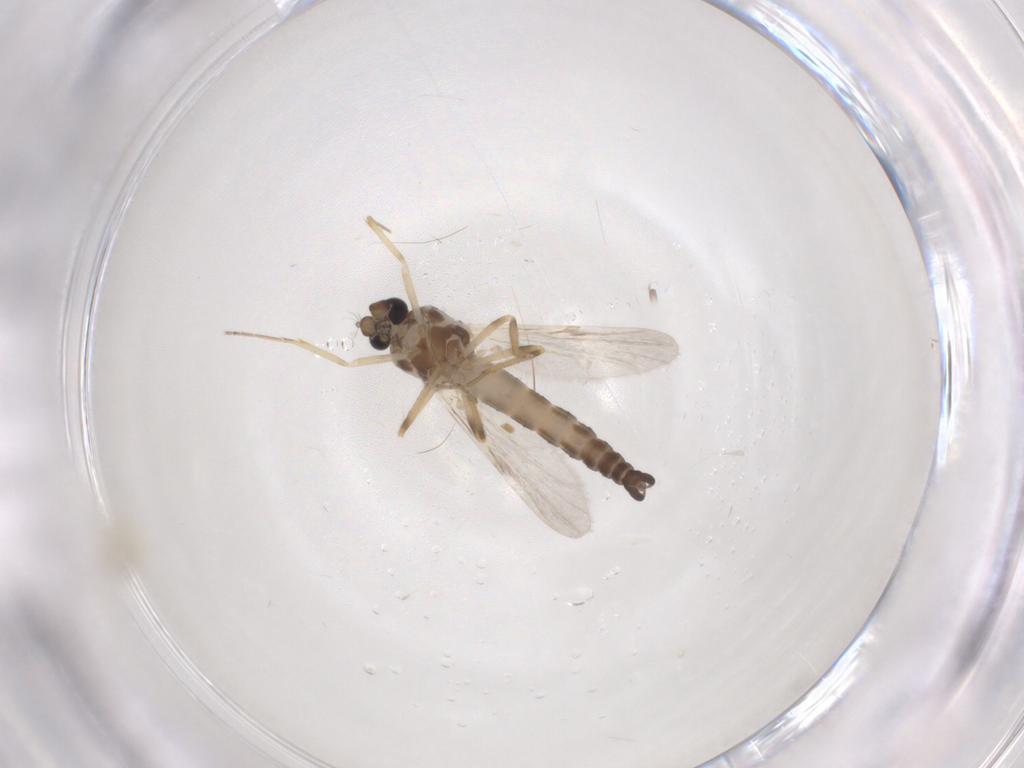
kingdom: Animalia
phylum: Arthropoda
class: Insecta
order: Diptera
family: Ceratopogonidae
